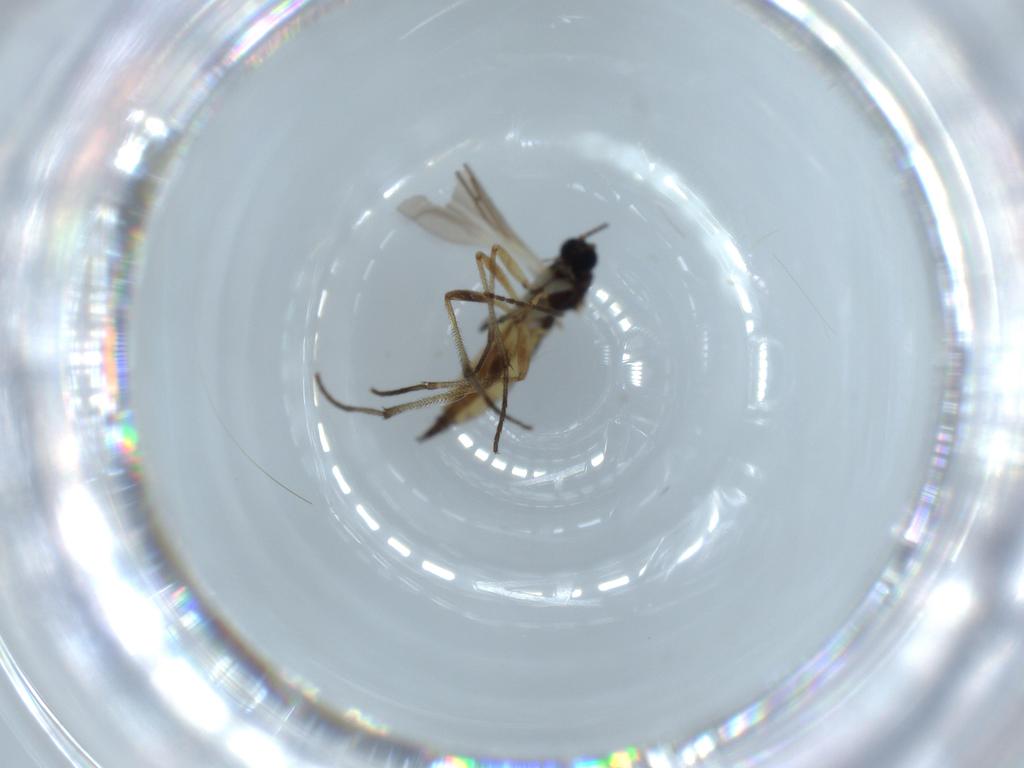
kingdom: Animalia
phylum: Arthropoda
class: Insecta
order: Diptera
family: Sciaridae
